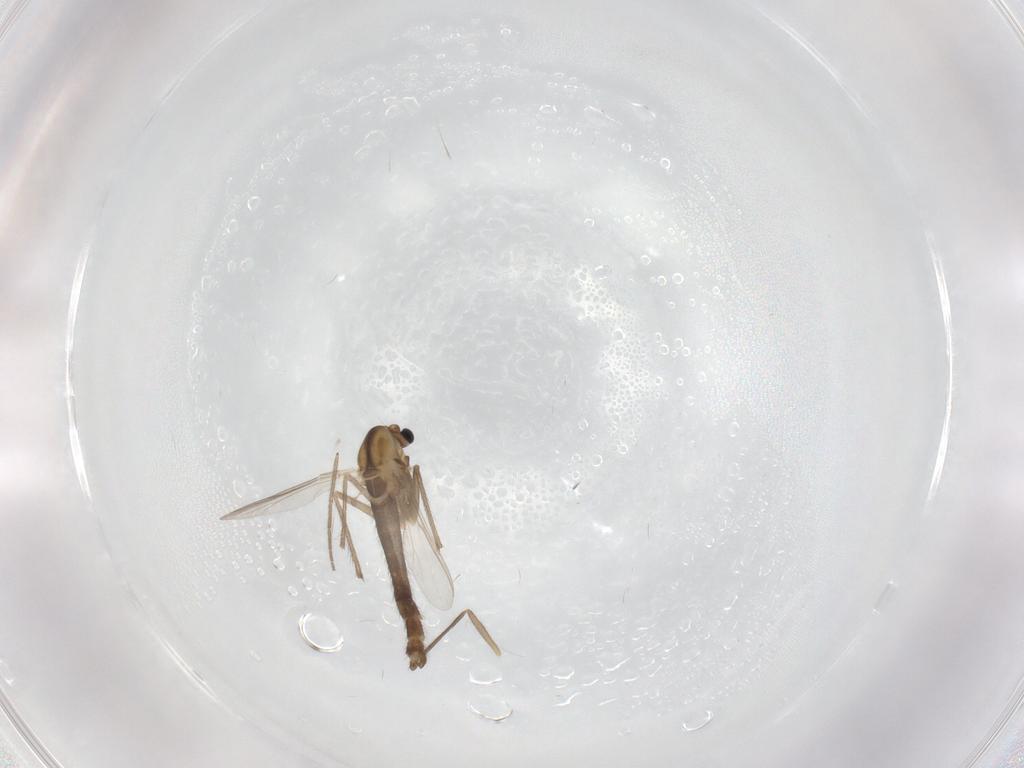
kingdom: Animalia
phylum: Arthropoda
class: Insecta
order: Diptera
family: Chironomidae
